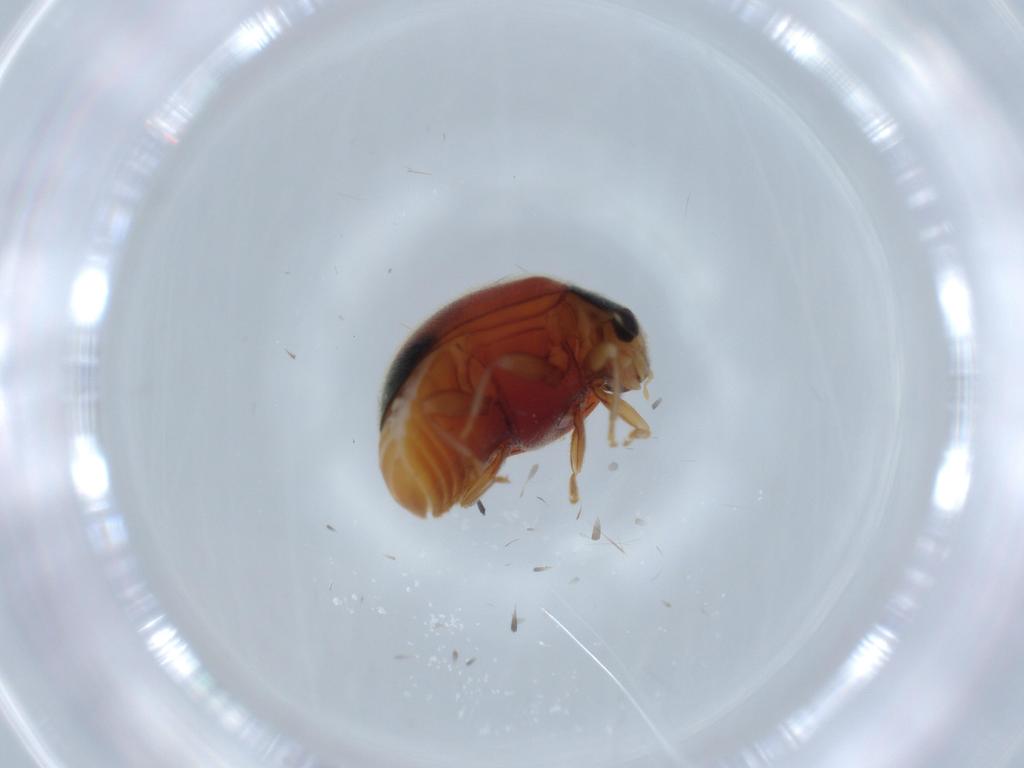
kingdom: Animalia
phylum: Arthropoda
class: Insecta
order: Coleoptera
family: Coccinellidae
